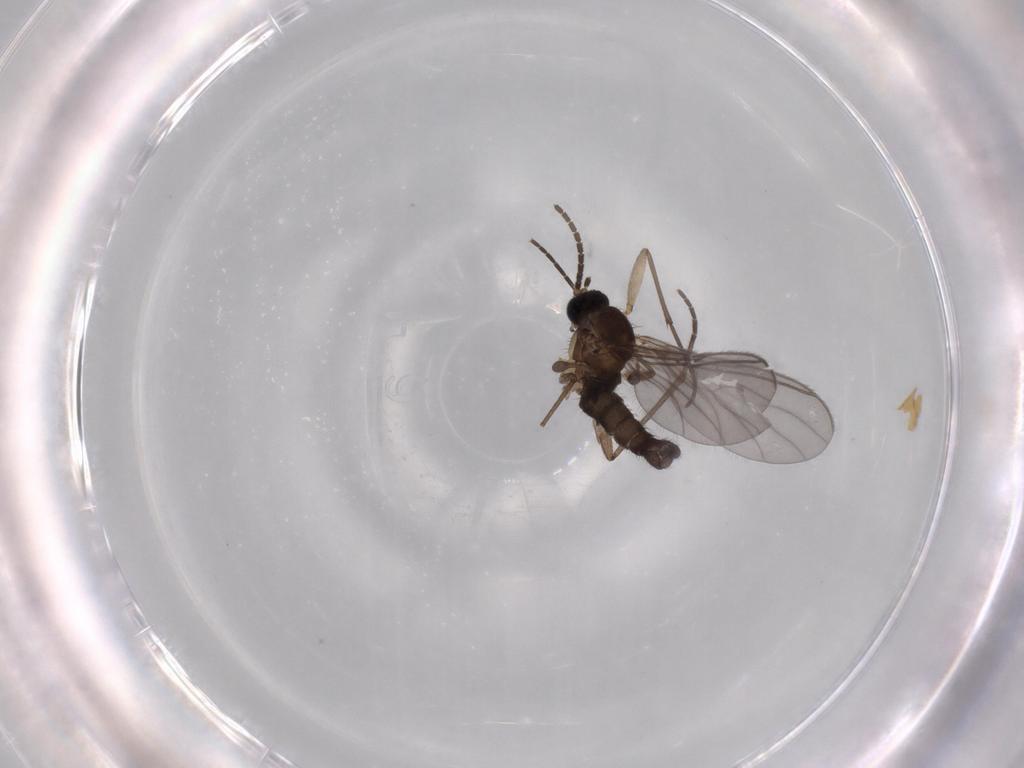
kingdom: Animalia
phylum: Arthropoda
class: Insecta
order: Diptera
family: Sciaridae
